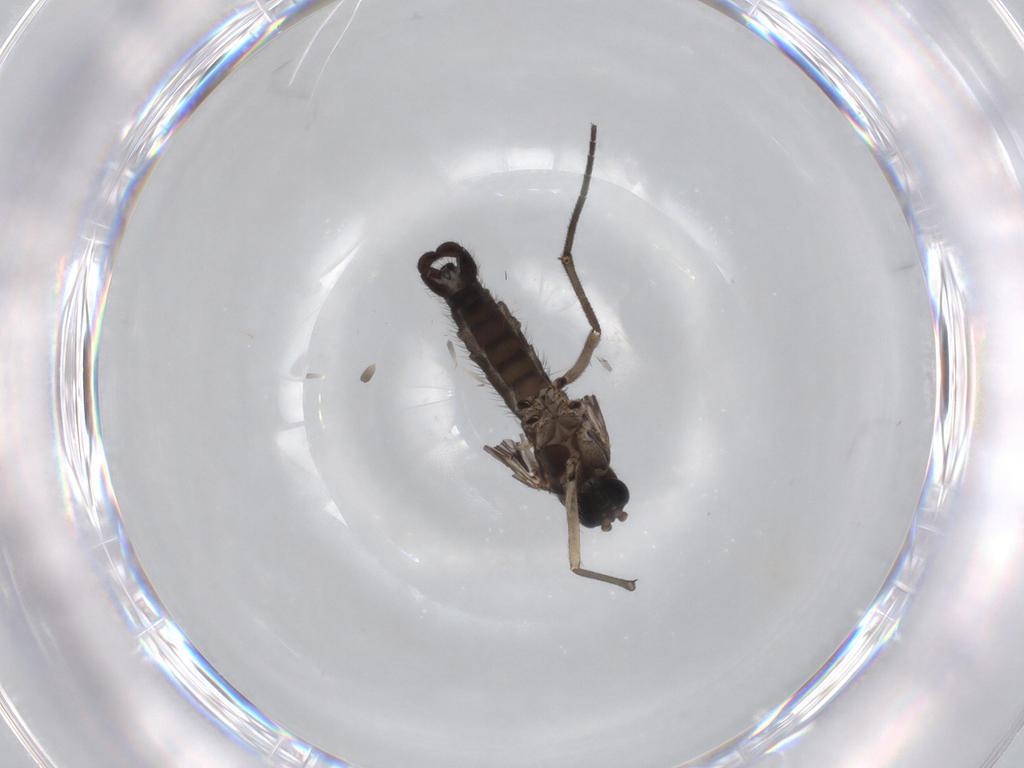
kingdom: Animalia
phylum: Arthropoda
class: Insecta
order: Diptera
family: Sciaridae
